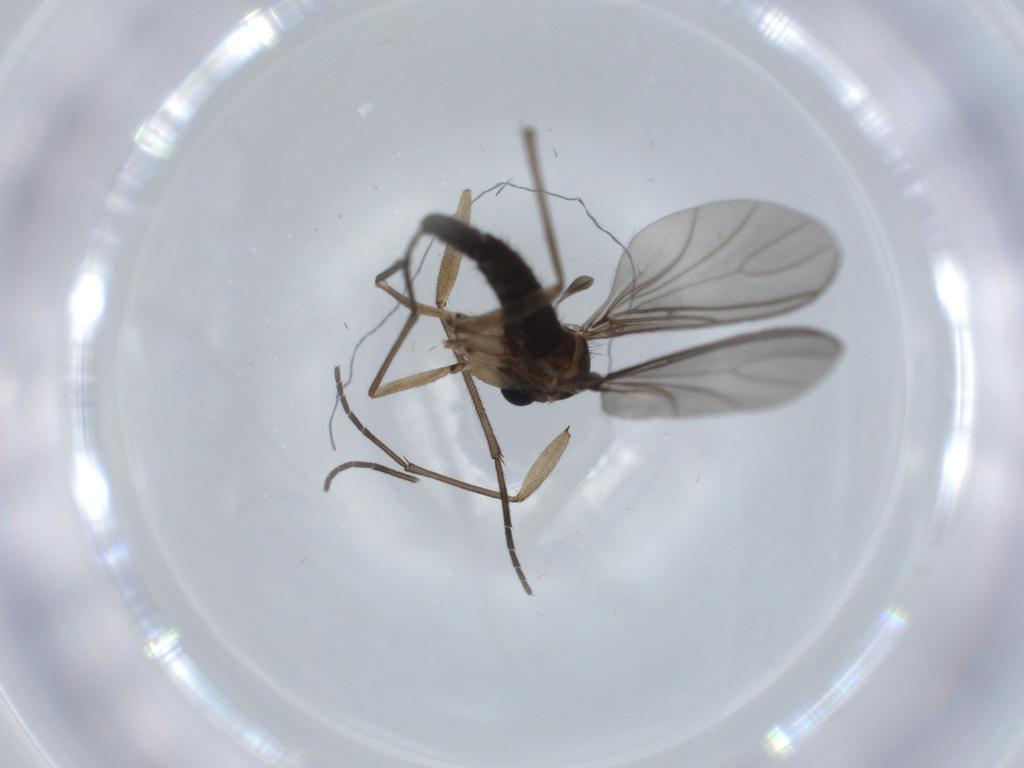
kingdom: Animalia
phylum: Arthropoda
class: Insecta
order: Diptera
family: Sciaridae
